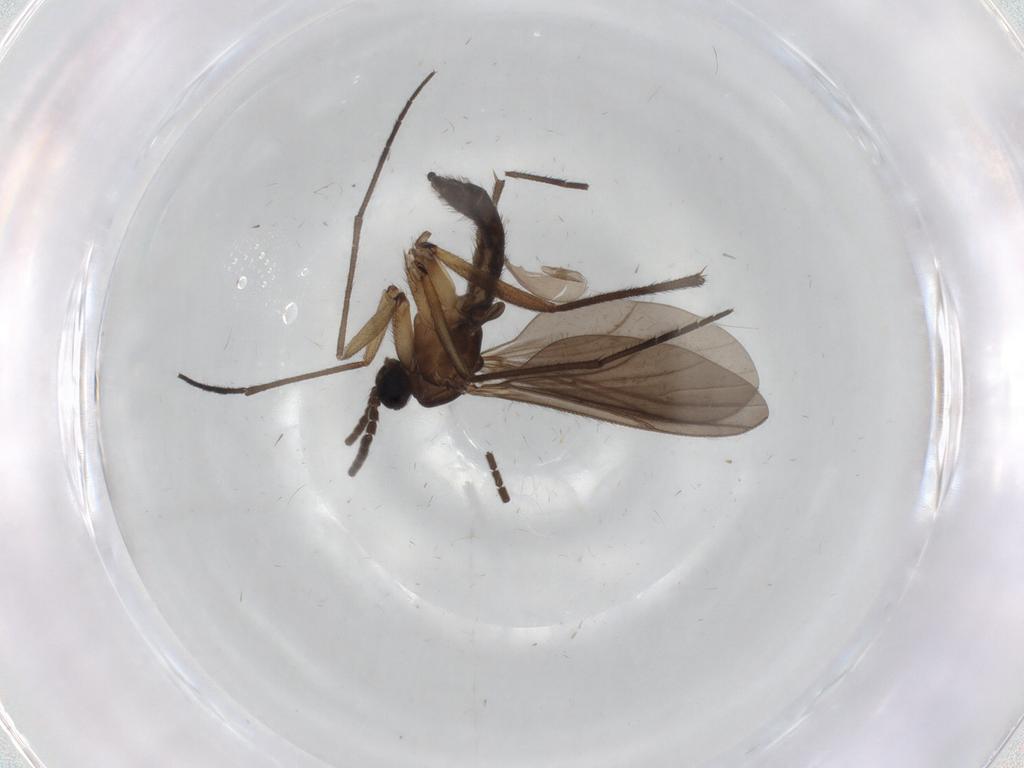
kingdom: Animalia
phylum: Arthropoda
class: Insecta
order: Diptera
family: Sciaridae
